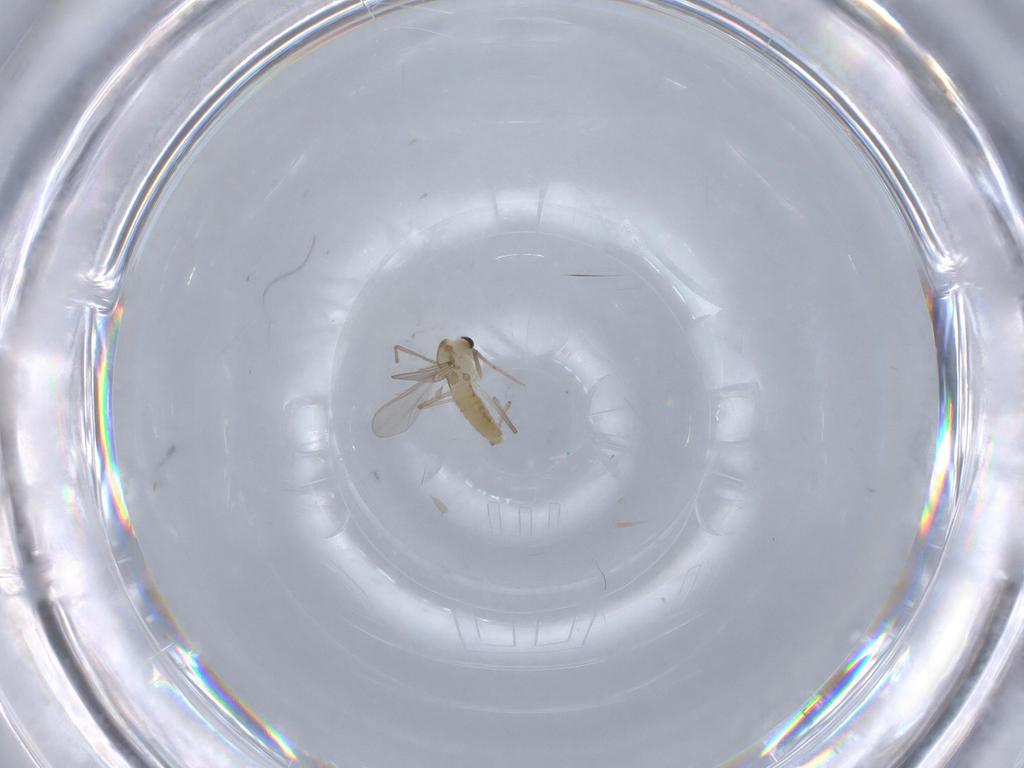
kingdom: Animalia
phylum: Arthropoda
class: Insecta
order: Diptera
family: Chironomidae
